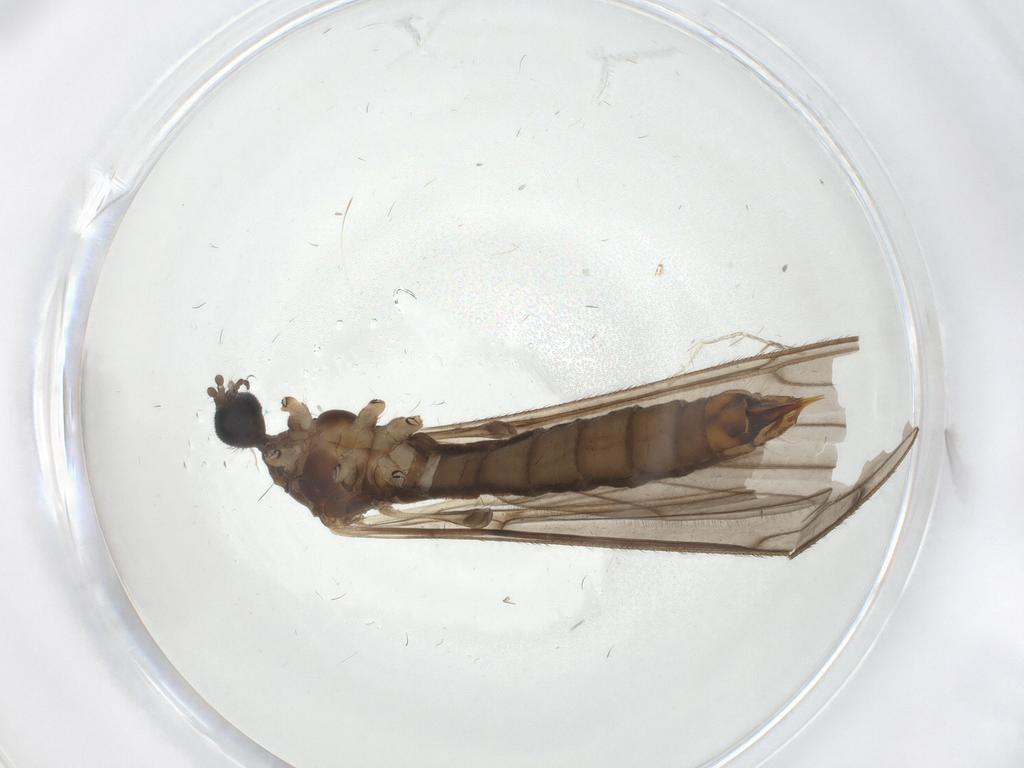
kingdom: Animalia
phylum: Arthropoda
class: Insecta
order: Diptera
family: Limoniidae
